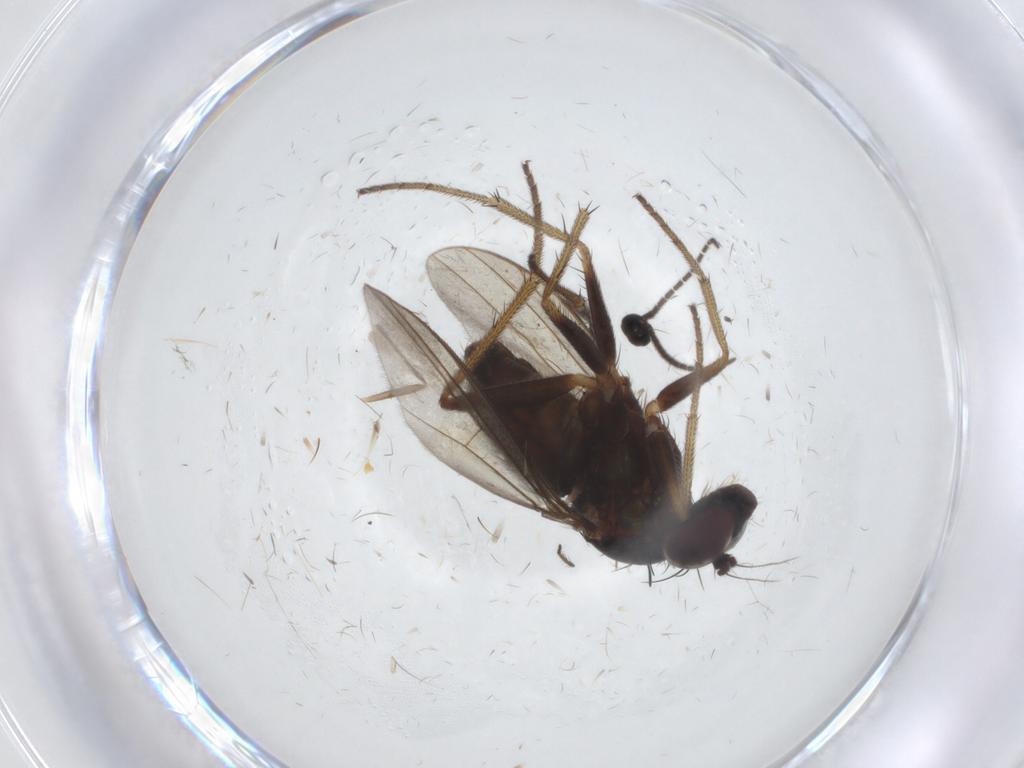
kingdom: Animalia
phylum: Arthropoda
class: Insecta
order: Diptera
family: Sciaridae
